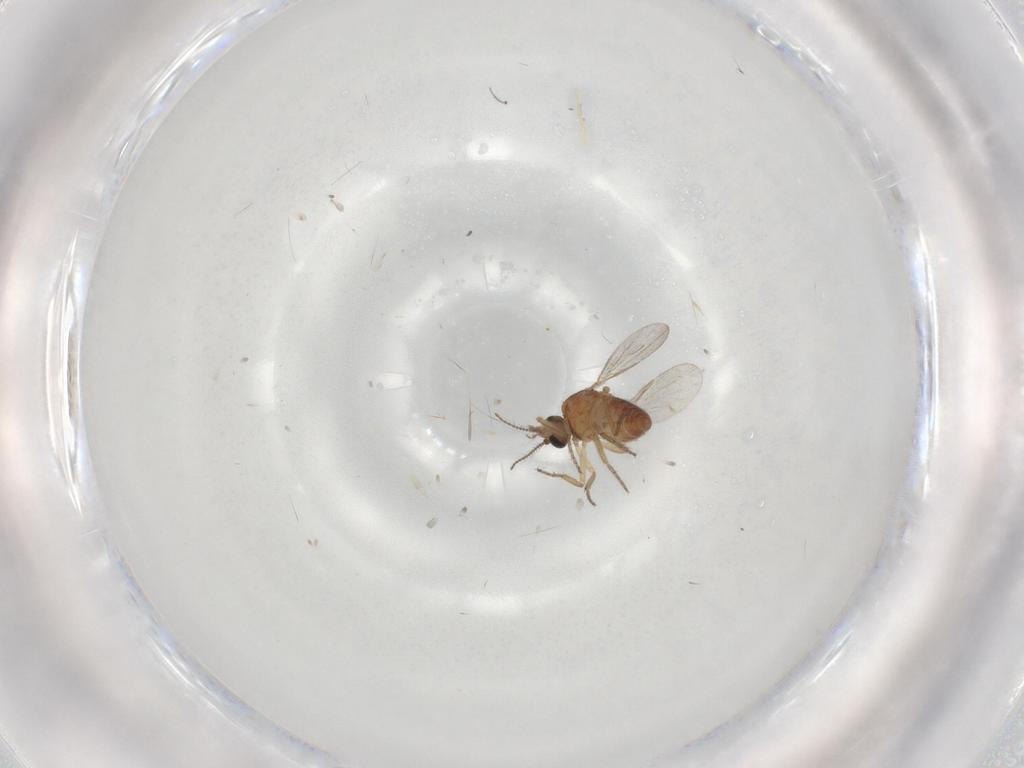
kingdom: Animalia
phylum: Arthropoda
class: Insecta
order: Diptera
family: Ceratopogonidae
